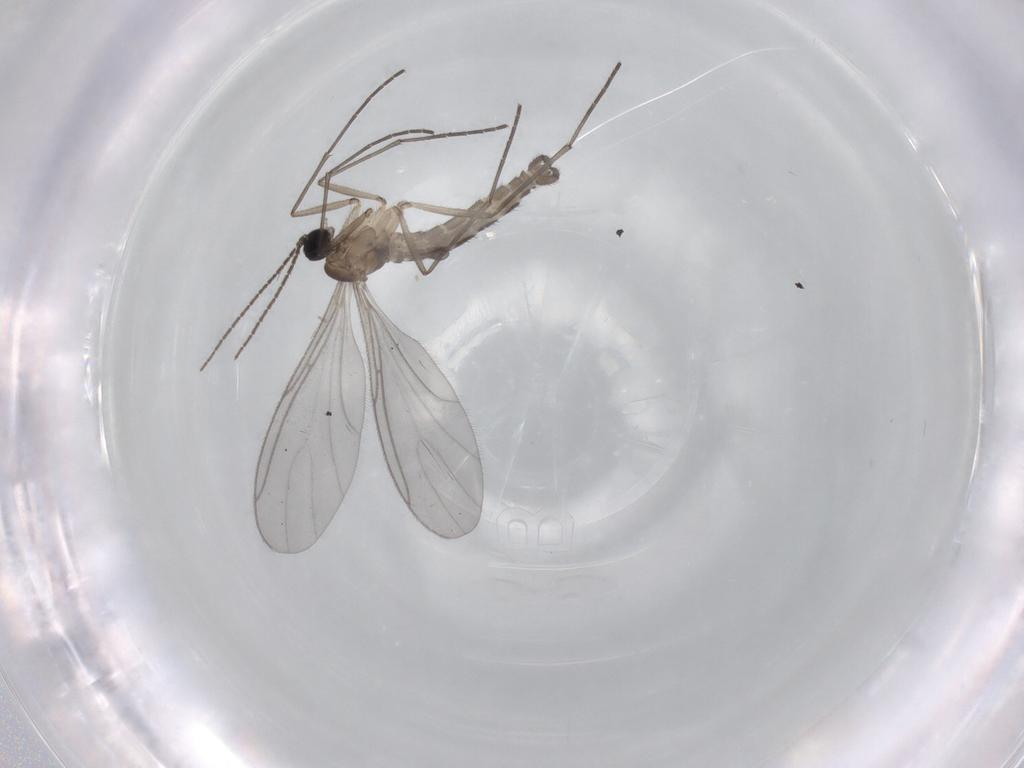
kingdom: Animalia
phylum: Arthropoda
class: Insecta
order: Diptera
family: Sciaridae
